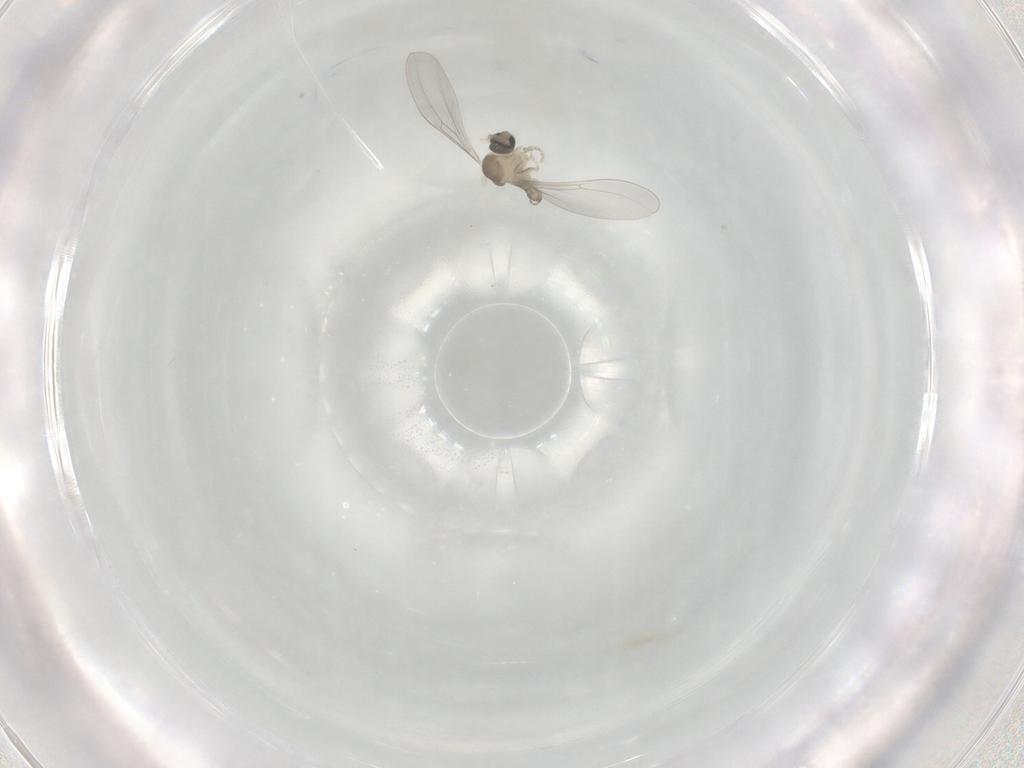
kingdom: Animalia
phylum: Arthropoda
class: Insecta
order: Diptera
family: Cecidomyiidae
